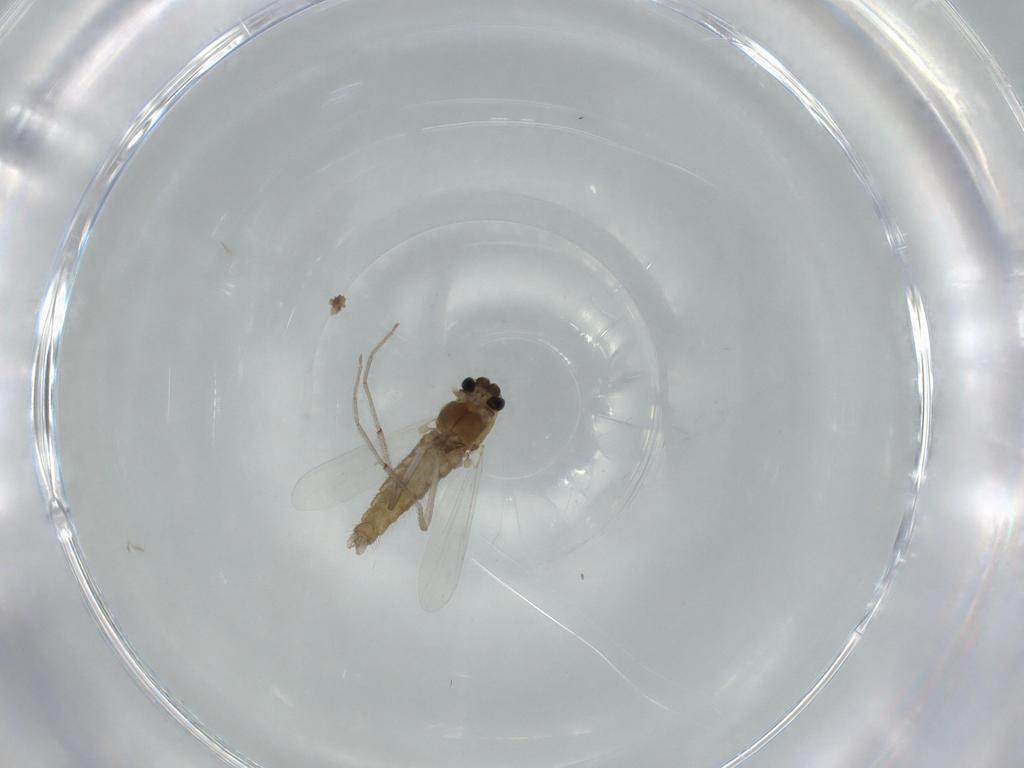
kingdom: Animalia
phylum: Arthropoda
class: Insecta
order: Diptera
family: Chironomidae
